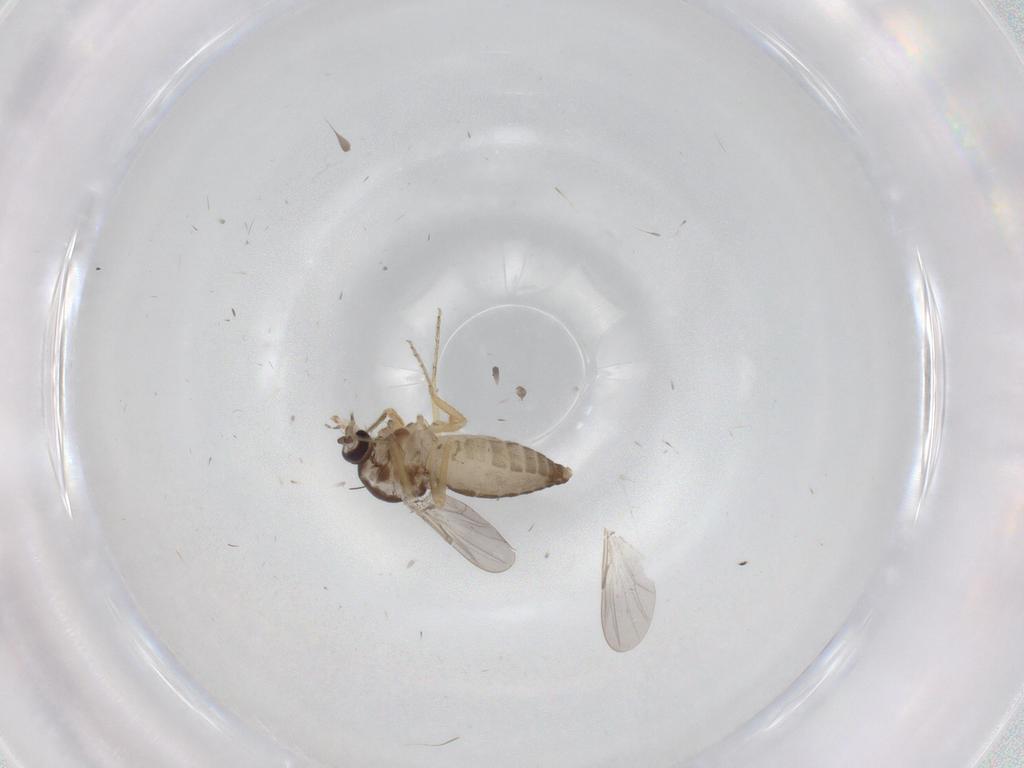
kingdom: Animalia
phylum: Arthropoda
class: Insecta
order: Diptera
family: Ceratopogonidae
